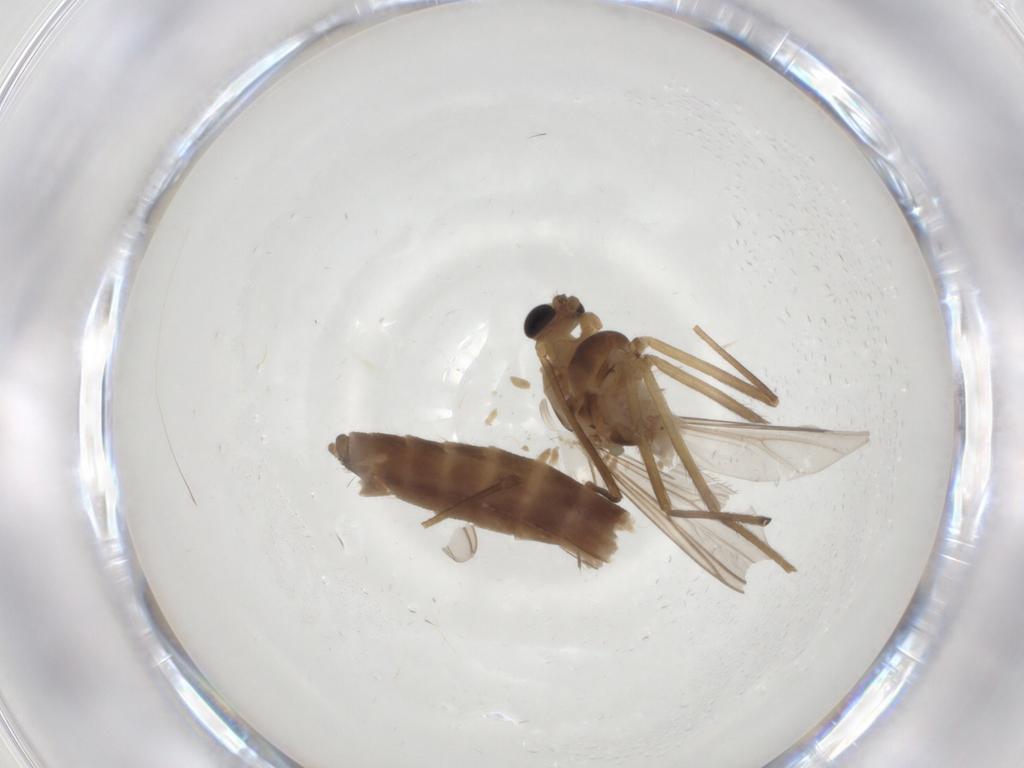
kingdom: Animalia
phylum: Arthropoda
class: Insecta
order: Diptera
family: Chironomidae
